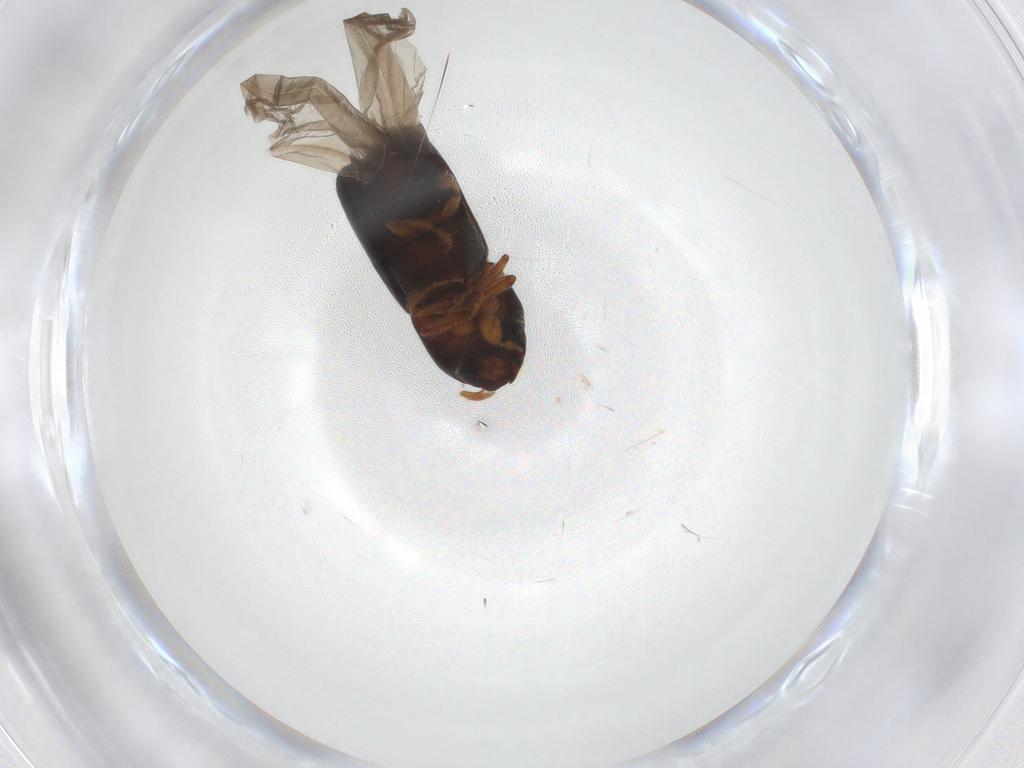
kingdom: Animalia
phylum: Arthropoda
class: Insecta
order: Coleoptera
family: Curculionidae
